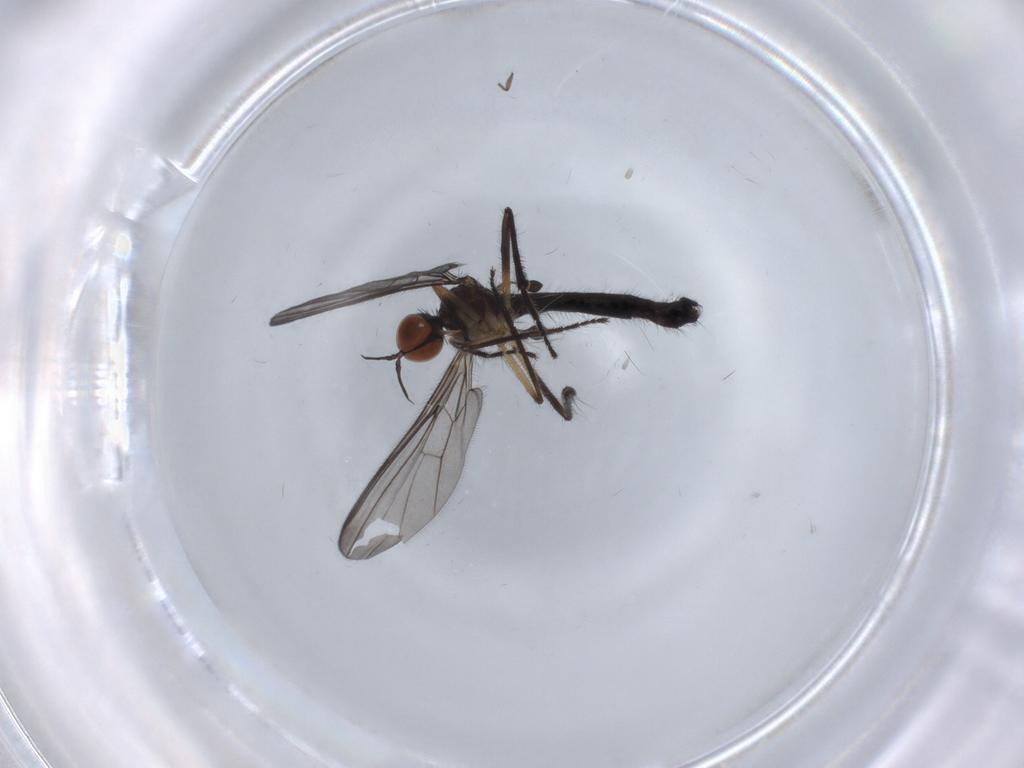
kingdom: Animalia
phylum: Arthropoda
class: Insecta
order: Diptera
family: Empididae
